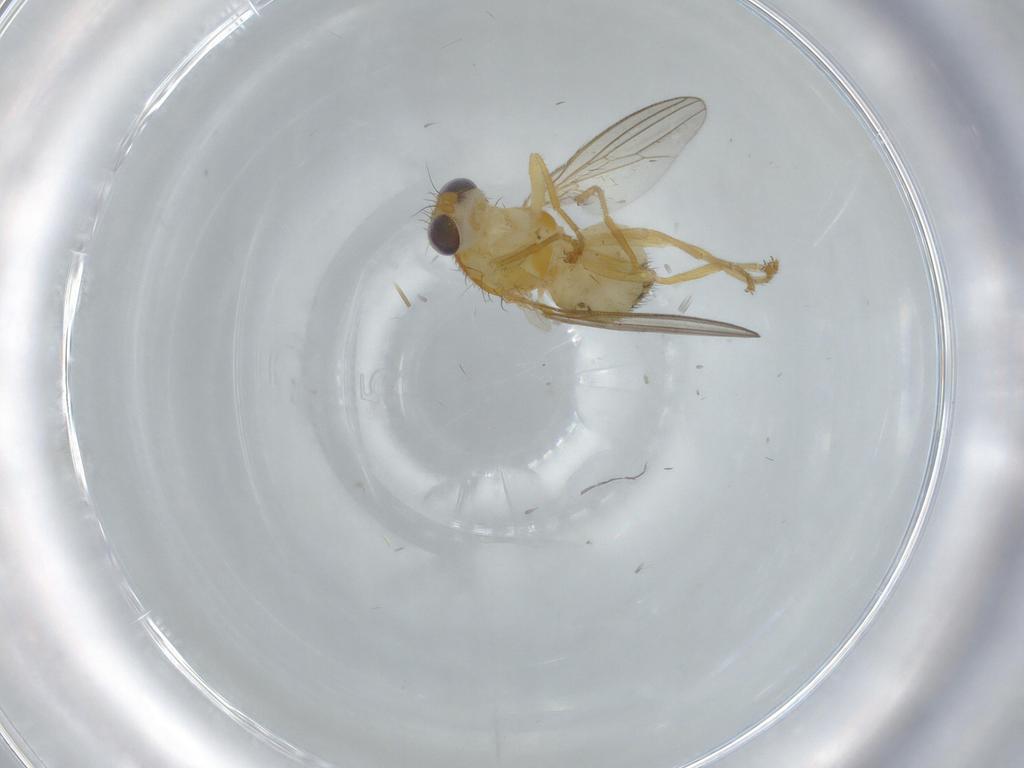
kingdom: Animalia
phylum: Arthropoda
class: Insecta
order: Diptera
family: Chyromyidae
